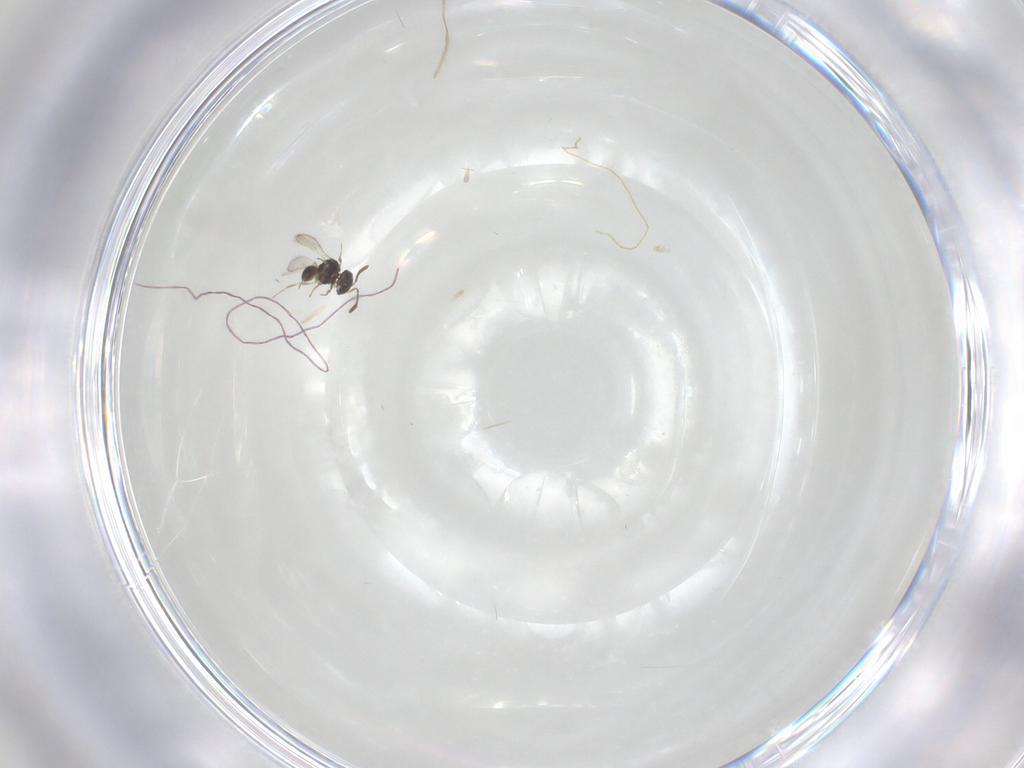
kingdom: Animalia
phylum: Arthropoda
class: Insecta
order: Hymenoptera
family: Scelionidae
